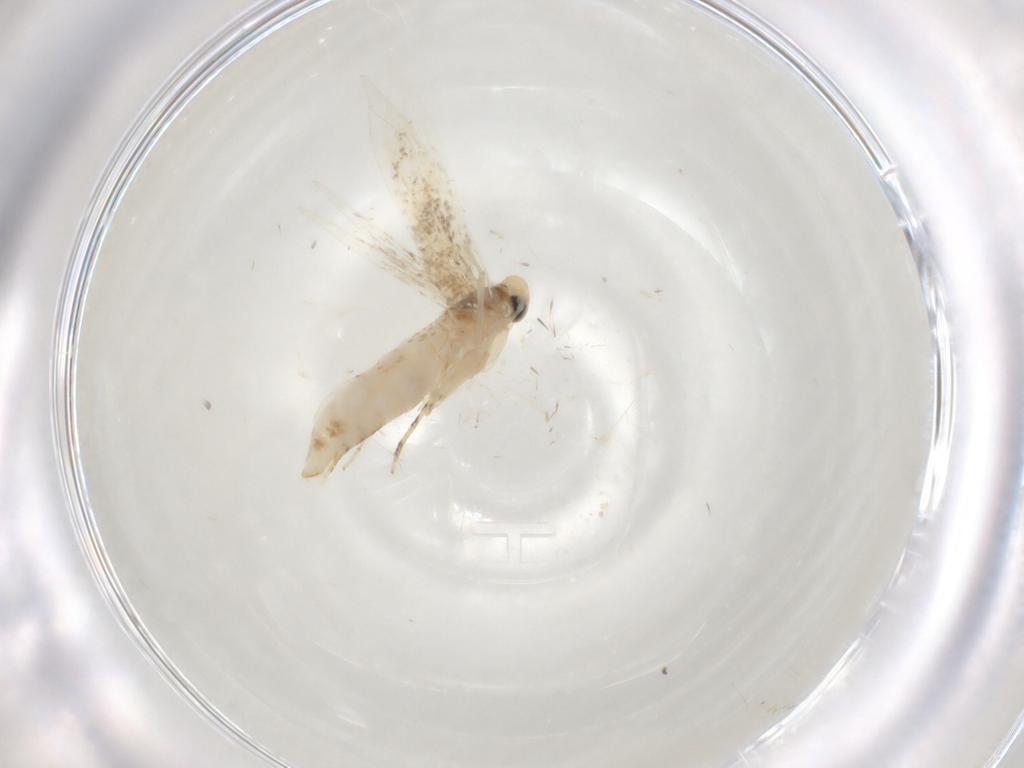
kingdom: Animalia
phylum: Arthropoda
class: Insecta
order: Lepidoptera
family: Gracillariidae
